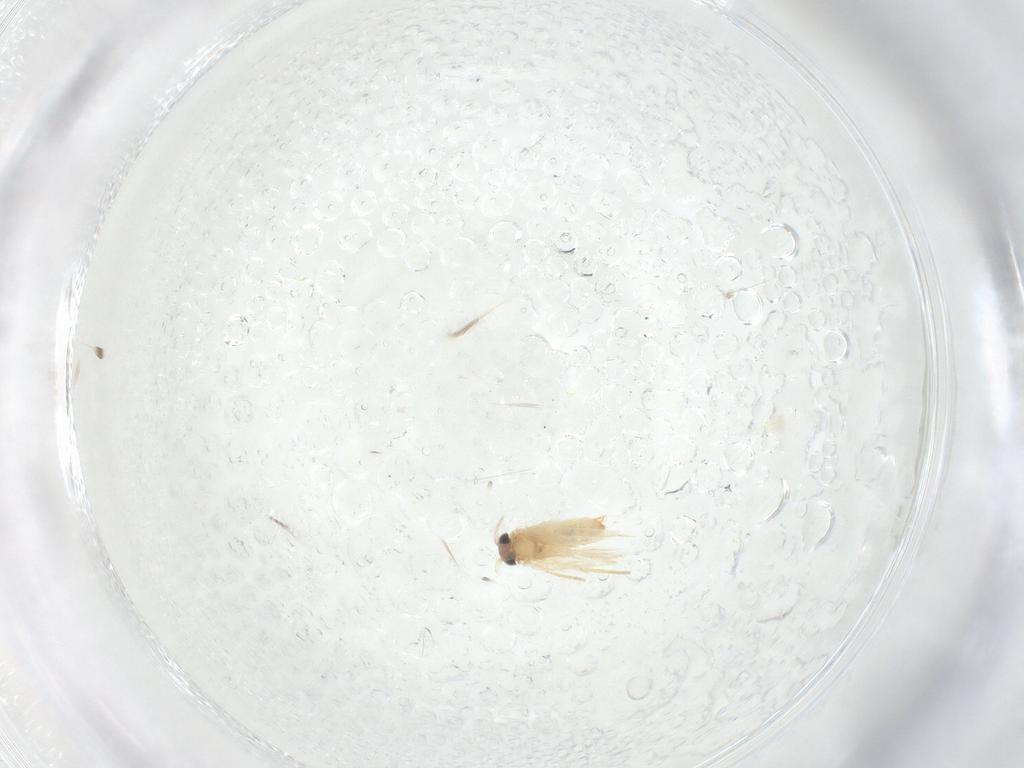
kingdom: Animalia
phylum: Arthropoda
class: Insecta
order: Lepidoptera
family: Crambidae
